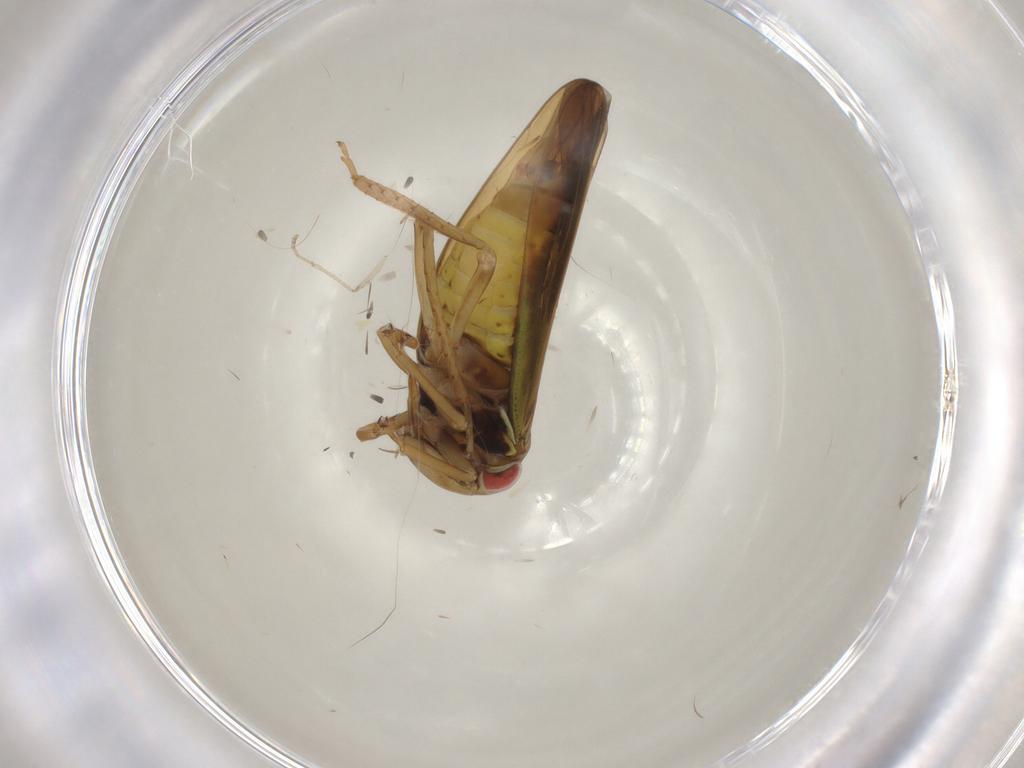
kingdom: Animalia
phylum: Arthropoda
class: Insecta
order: Hemiptera
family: Cicadellidae
